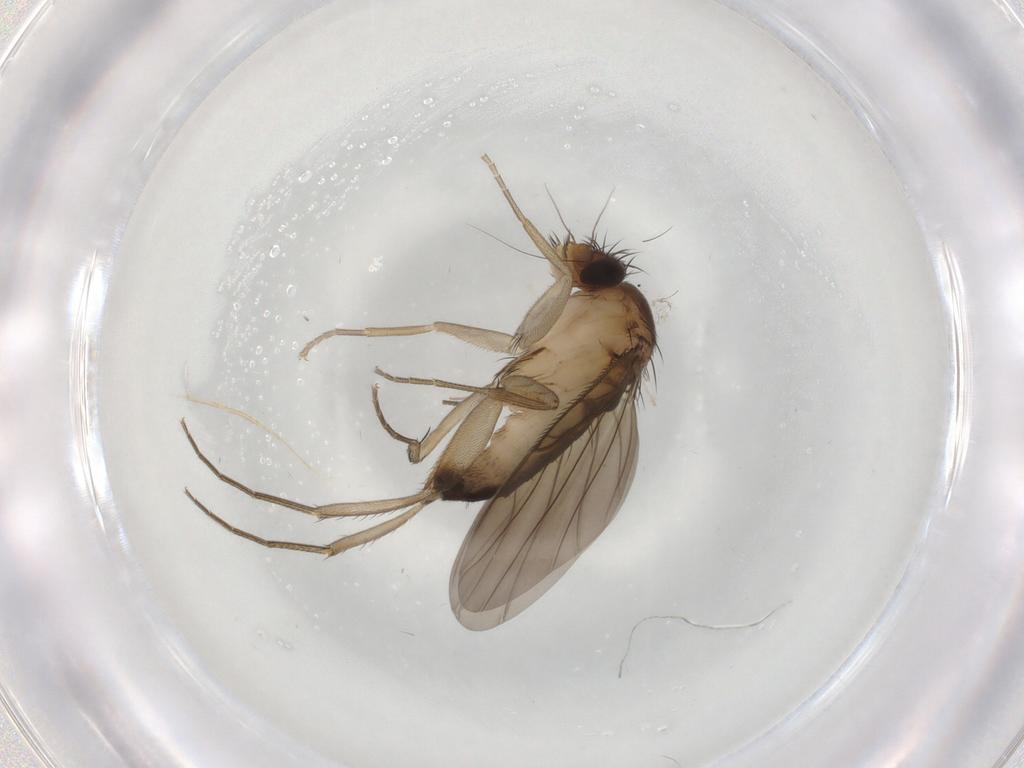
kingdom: Animalia
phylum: Arthropoda
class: Insecta
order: Diptera
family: Phoridae
